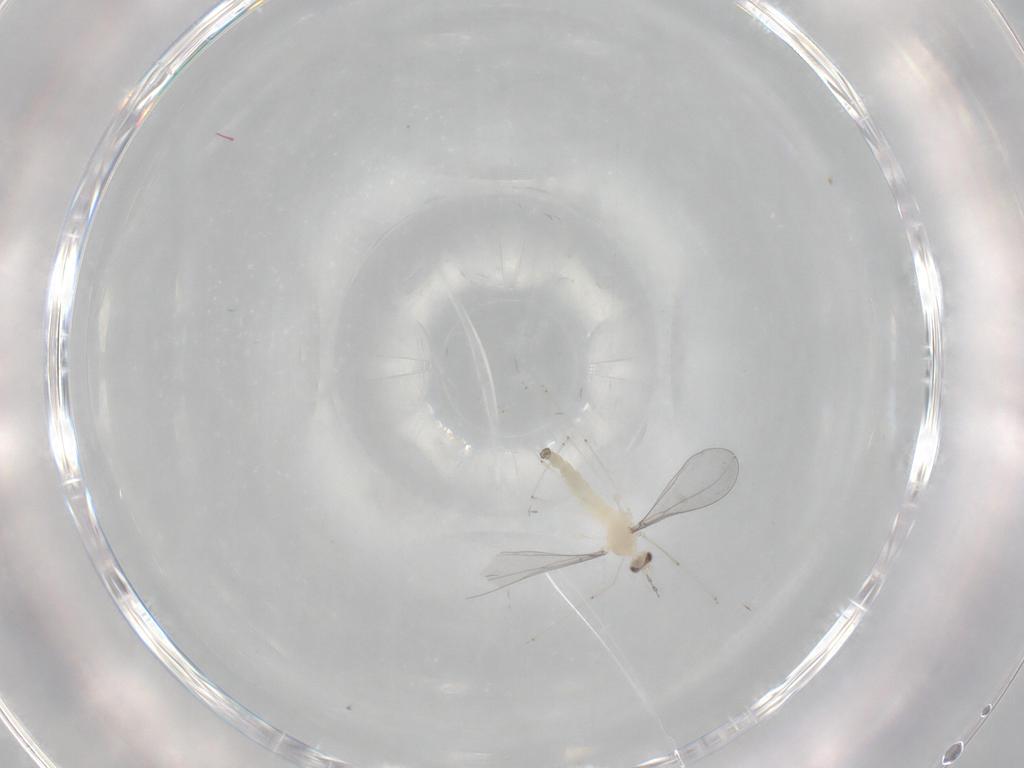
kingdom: Animalia
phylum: Arthropoda
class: Insecta
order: Diptera
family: Cecidomyiidae
